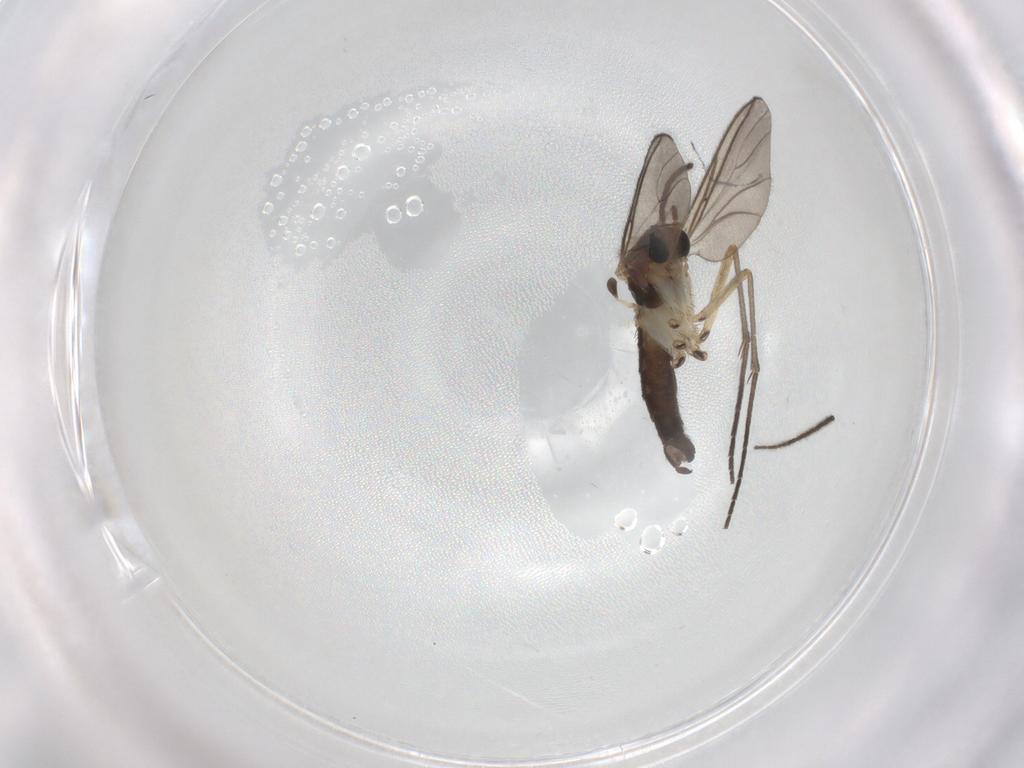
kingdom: Animalia
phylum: Arthropoda
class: Insecta
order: Diptera
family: Sciaridae
